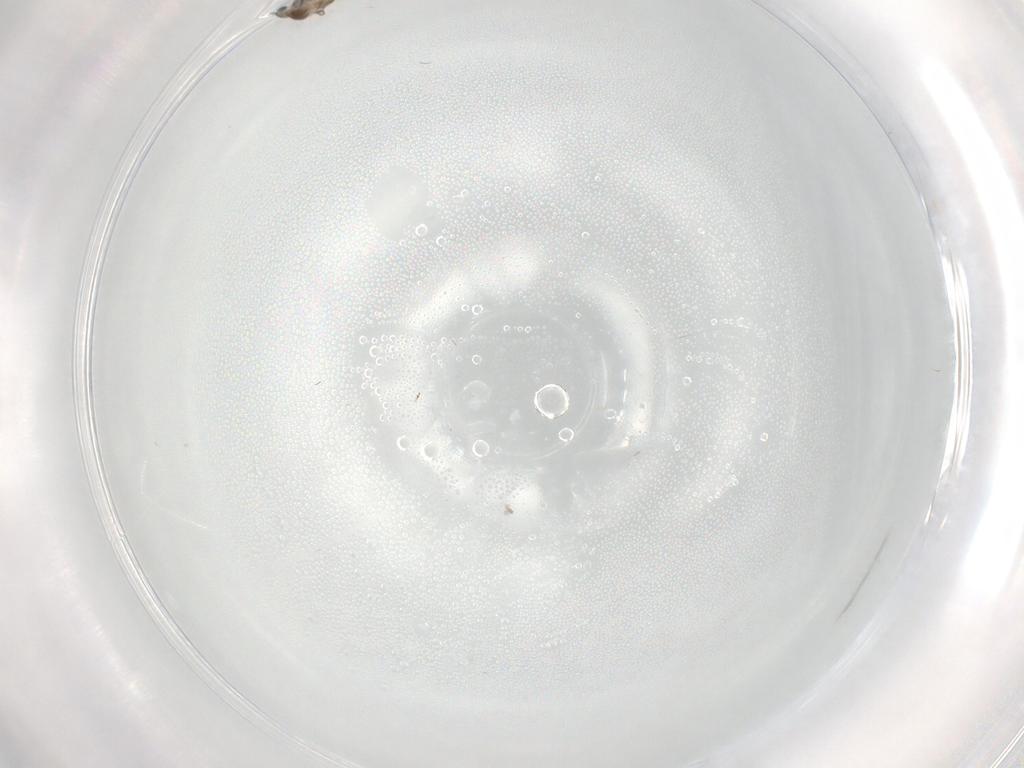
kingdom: Animalia
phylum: Arthropoda
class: Insecta
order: Diptera
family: Cecidomyiidae
